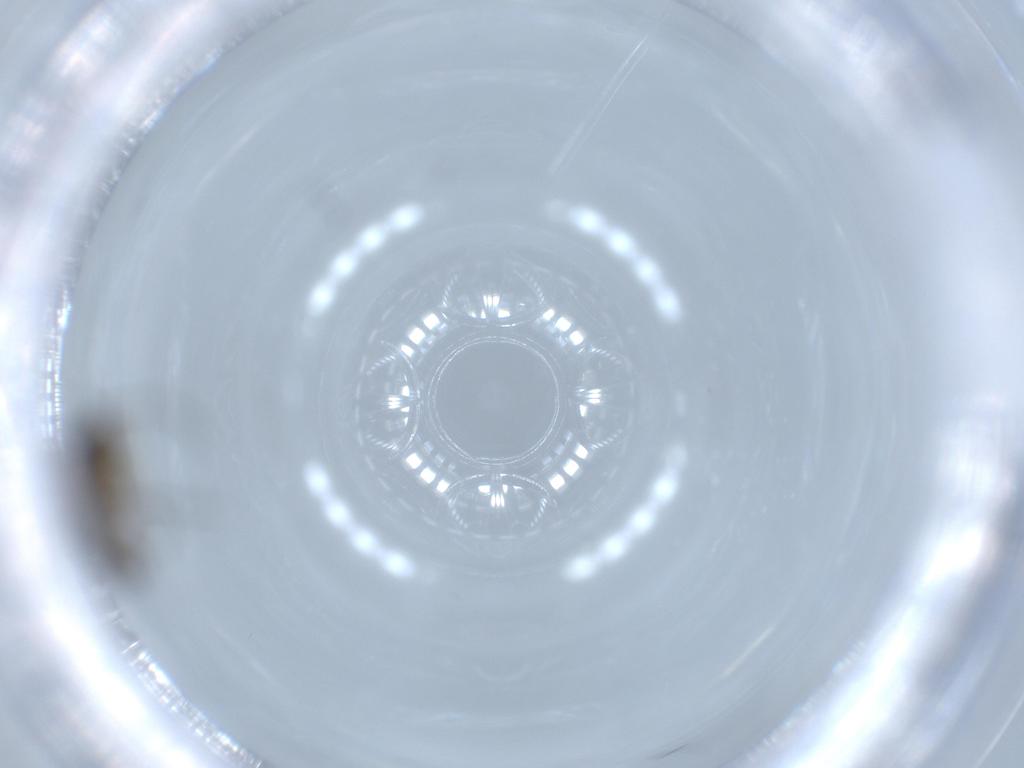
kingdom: Animalia
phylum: Arthropoda
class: Insecta
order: Diptera
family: Sciaridae
